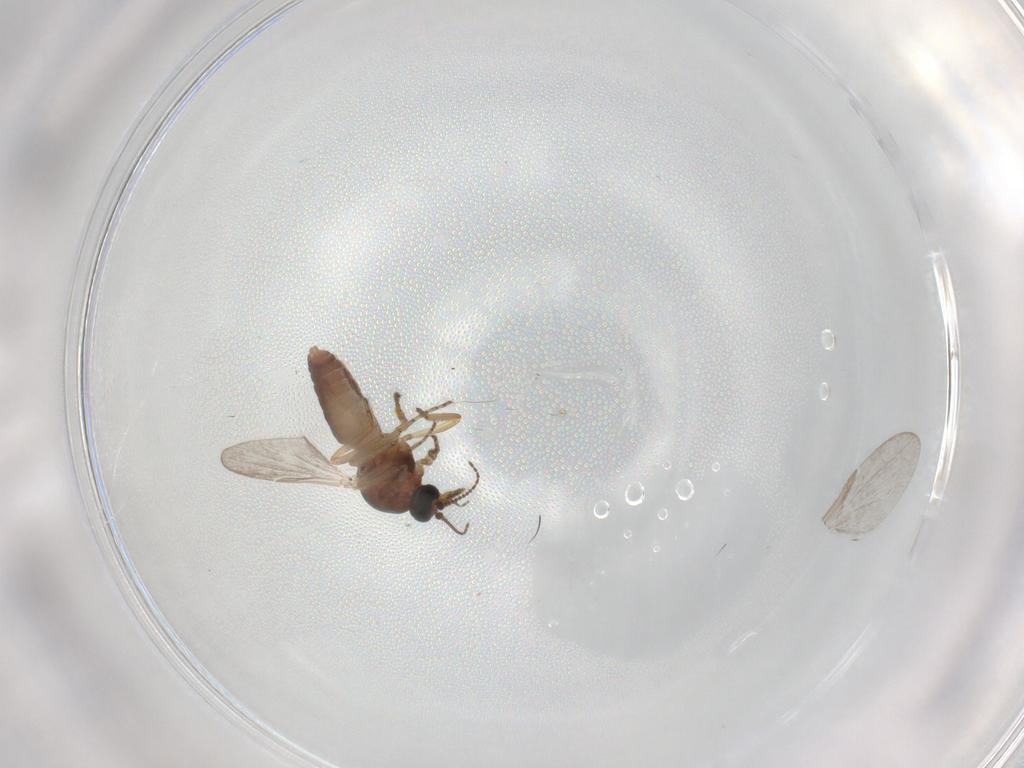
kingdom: Animalia
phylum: Arthropoda
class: Insecta
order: Diptera
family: Ceratopogonidae
